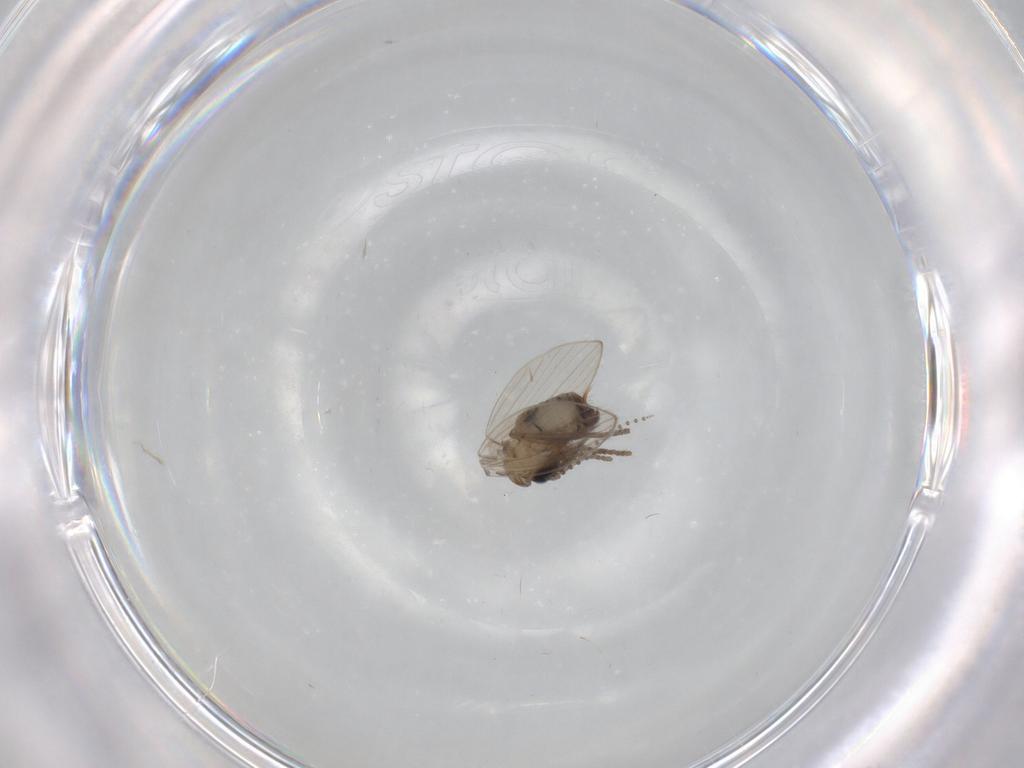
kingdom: Animalia
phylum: Arthropoda
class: Insecta
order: Diptera
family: Psychodidae
